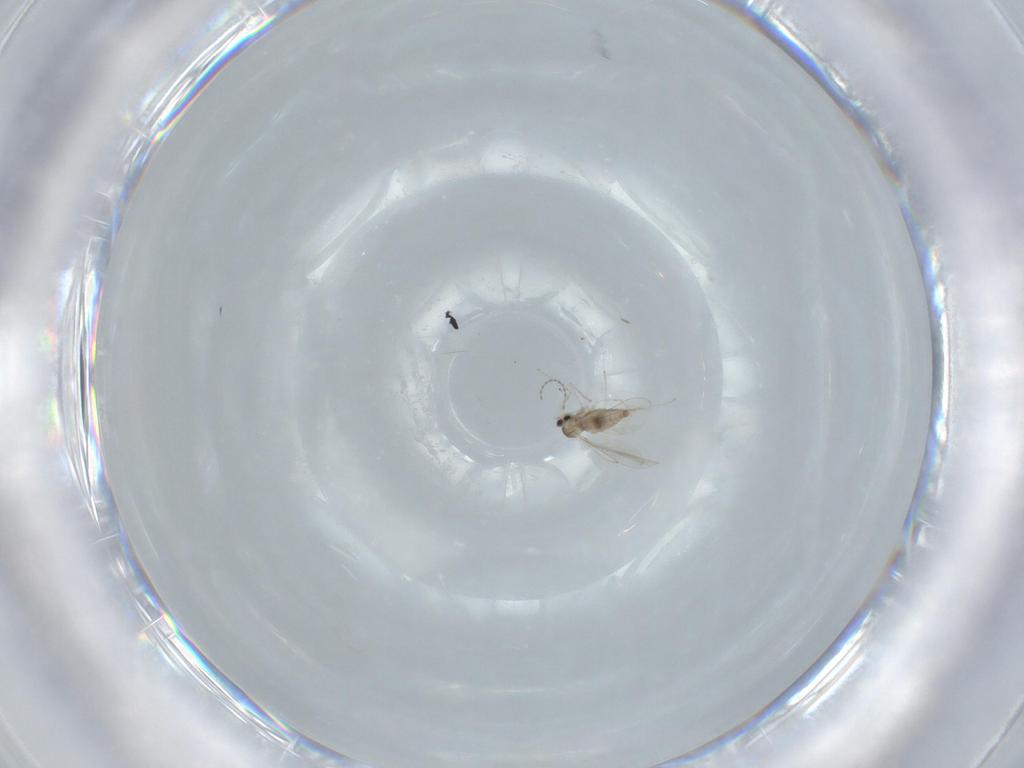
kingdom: Animalia
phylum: Arthropoda
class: Insecta
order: Diptera
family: Cecidomyiidae
